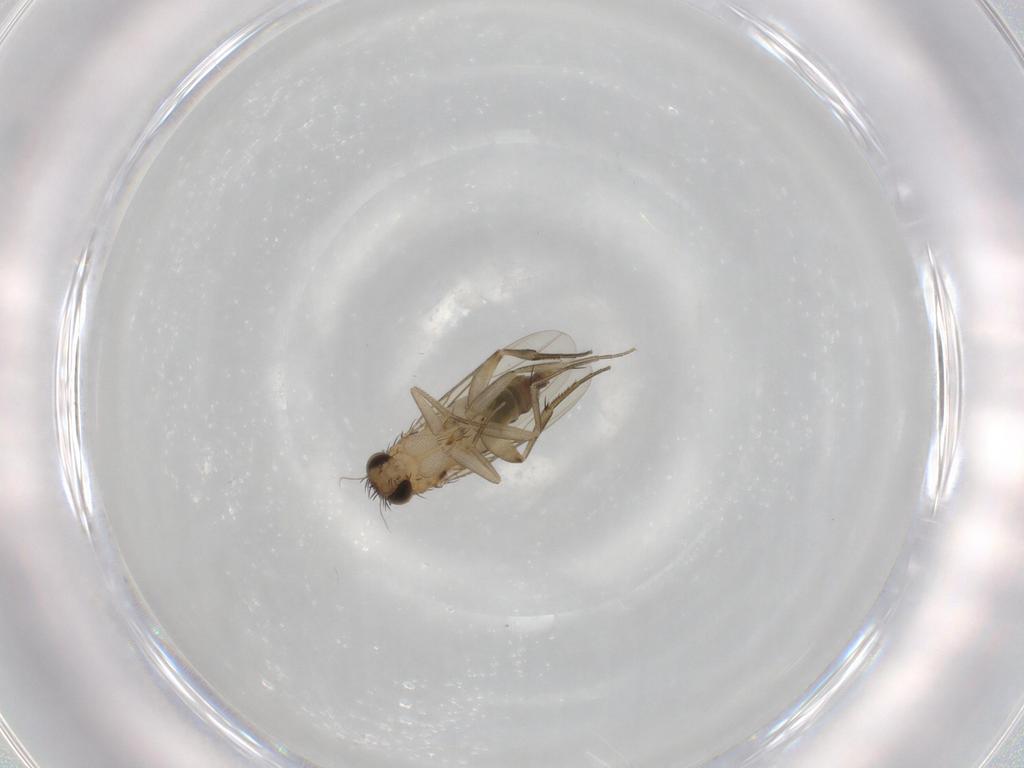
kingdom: Animalia
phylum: Arthropoda
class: Insecta
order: Diptera
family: Phoridae
